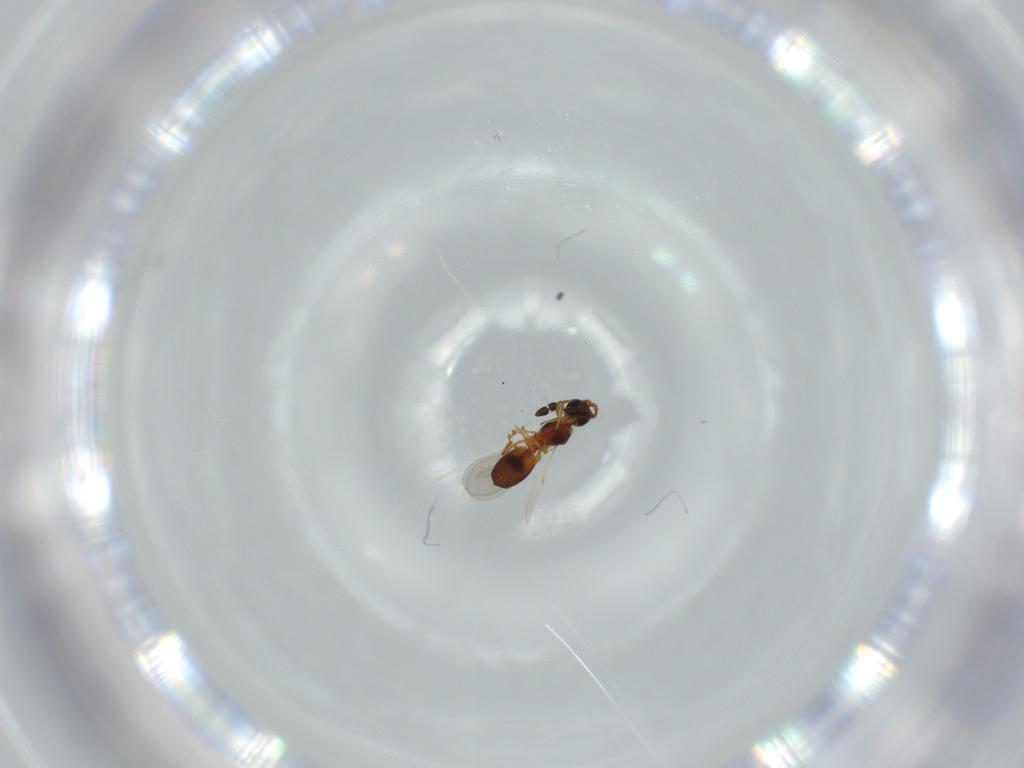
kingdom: Animalia
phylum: Arthropoda
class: Insecta
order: Hymenoptera
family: Diapriidae
